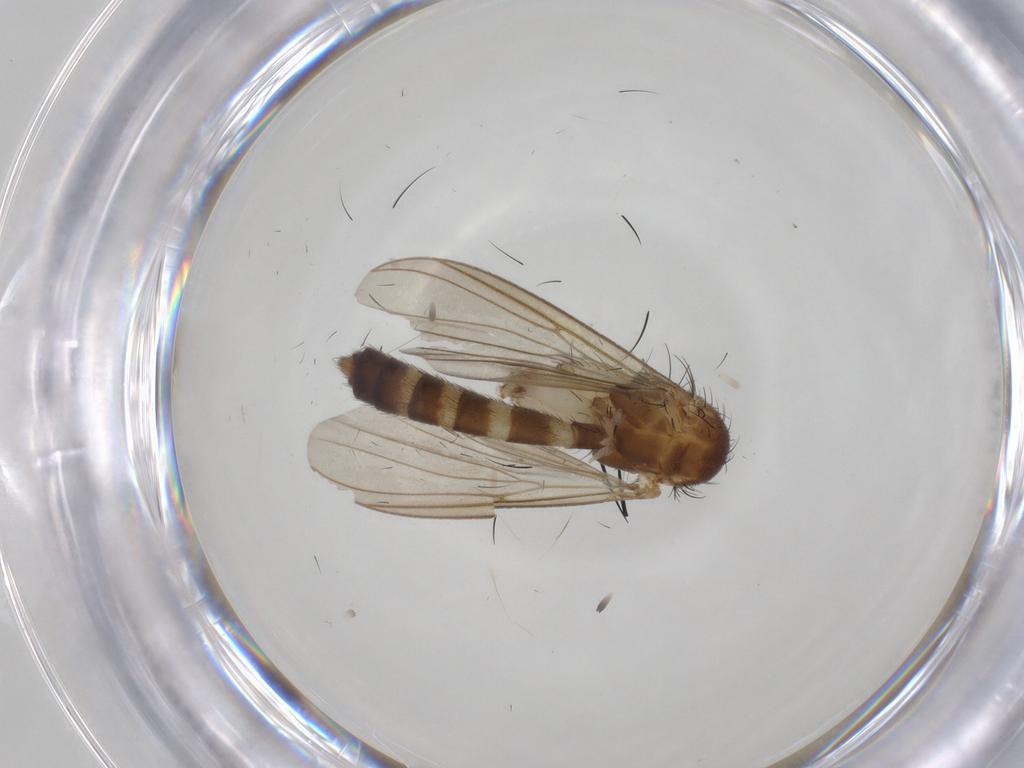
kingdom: Animalia
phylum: Arthropoda
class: Insecta
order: Diptera
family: Phoridae
